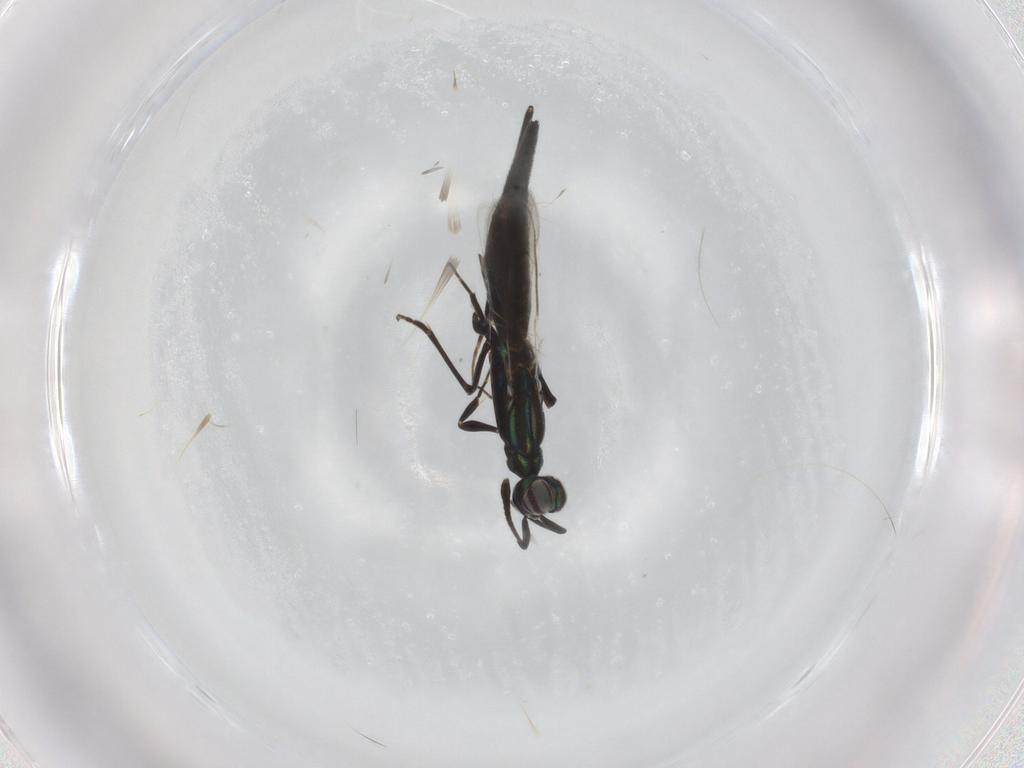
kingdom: Animalia
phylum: Arthropoda
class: Insecta
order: Hymenoptera
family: Eupelmidae
